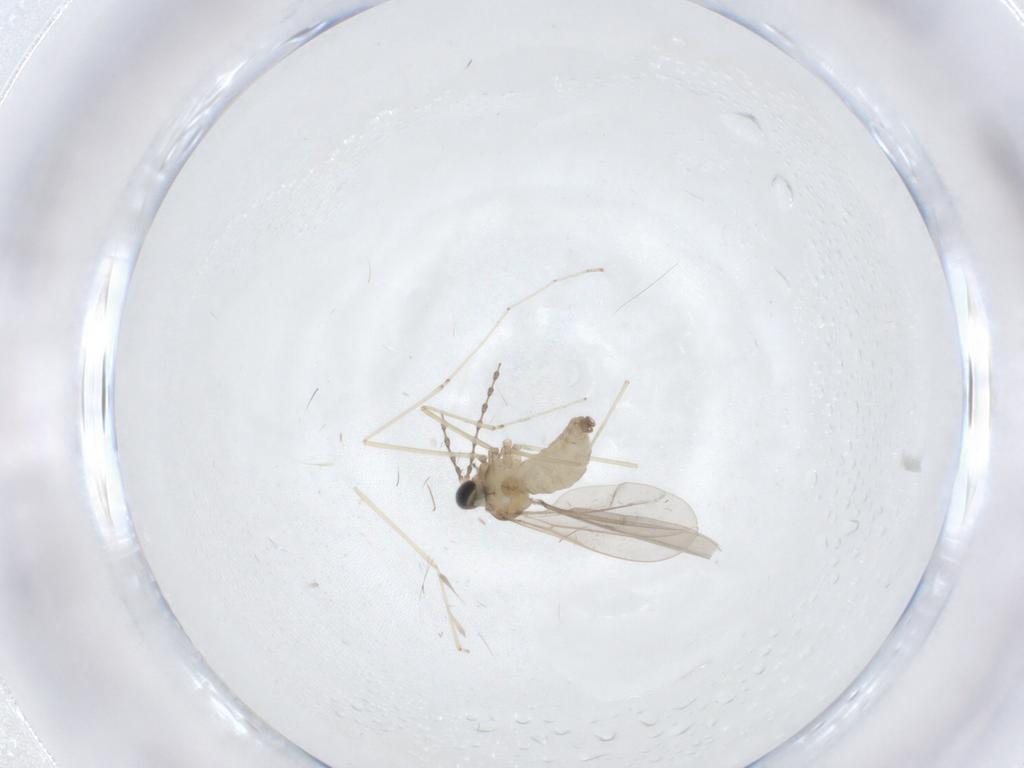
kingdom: Animalia
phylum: Arthropoda
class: Insecta
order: Diptera
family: Cecidomyiidae
